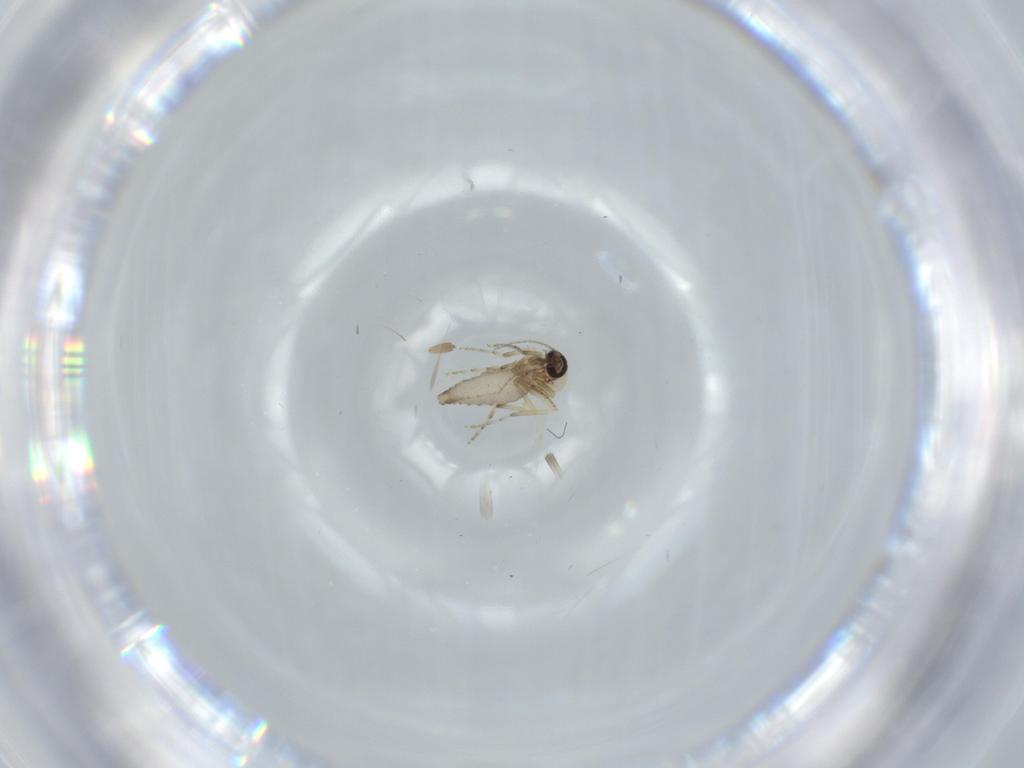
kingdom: Animalia
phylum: Arthropoda
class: Insecta
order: Diptera
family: Ceratopogonidae
